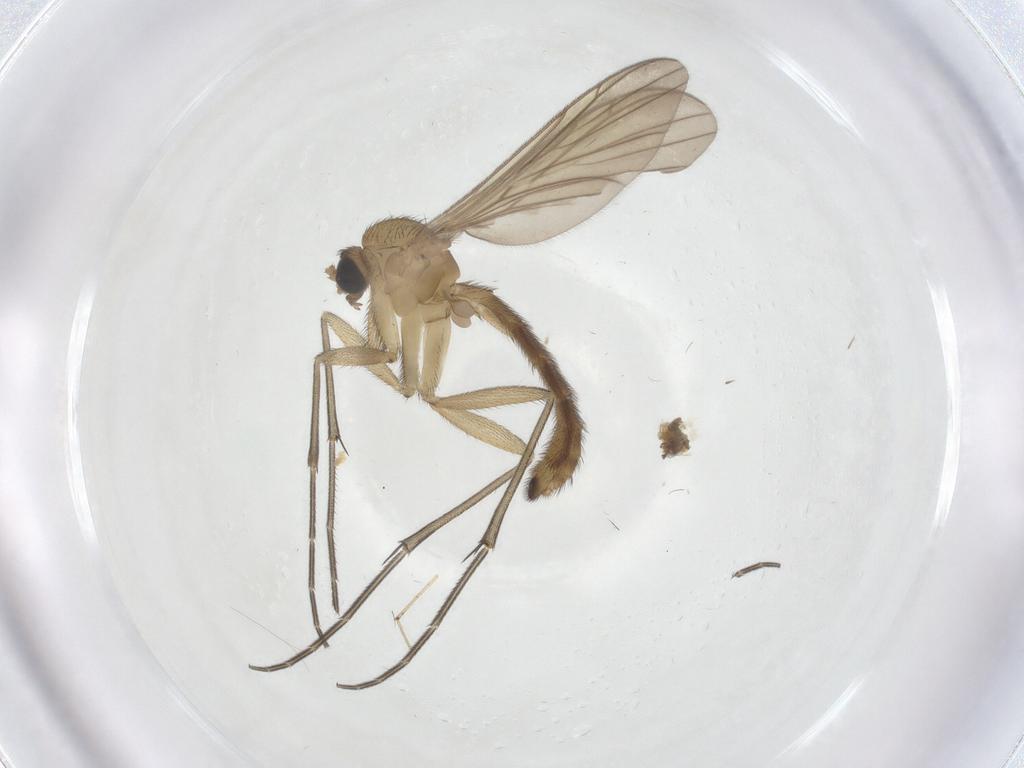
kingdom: Animalia
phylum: Arthropoda
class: Insecta
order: Diptera
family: Keroplatidae
